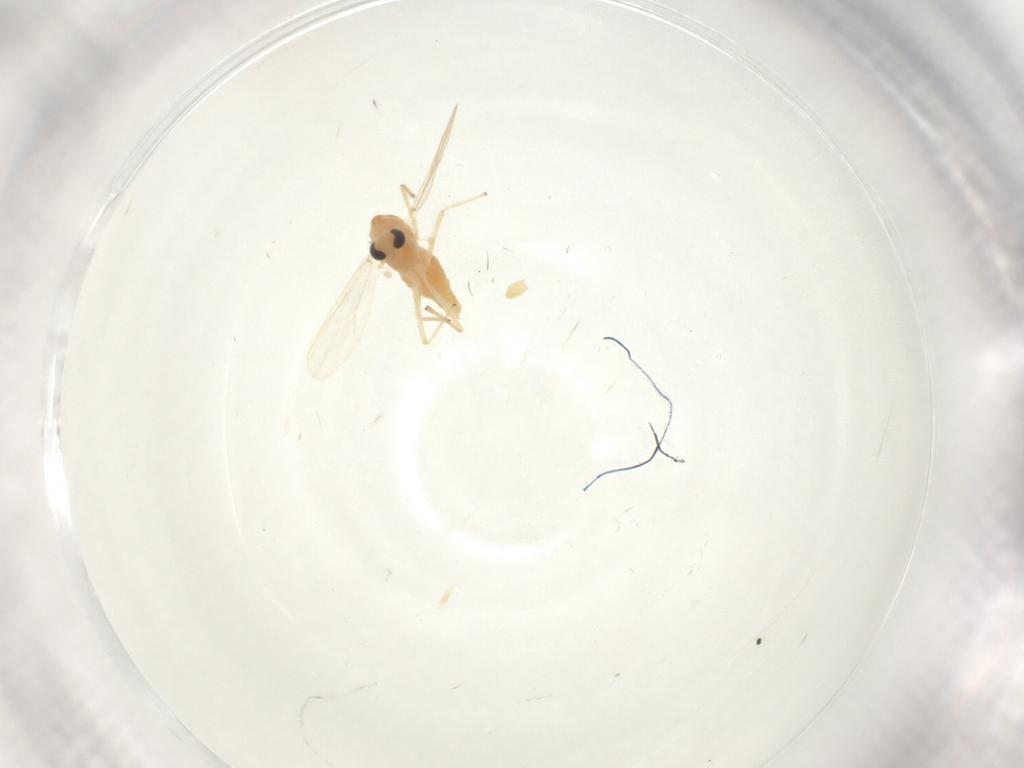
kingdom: Animalia
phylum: Arthropoda
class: Insecta
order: Diptera
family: Chironomidae
